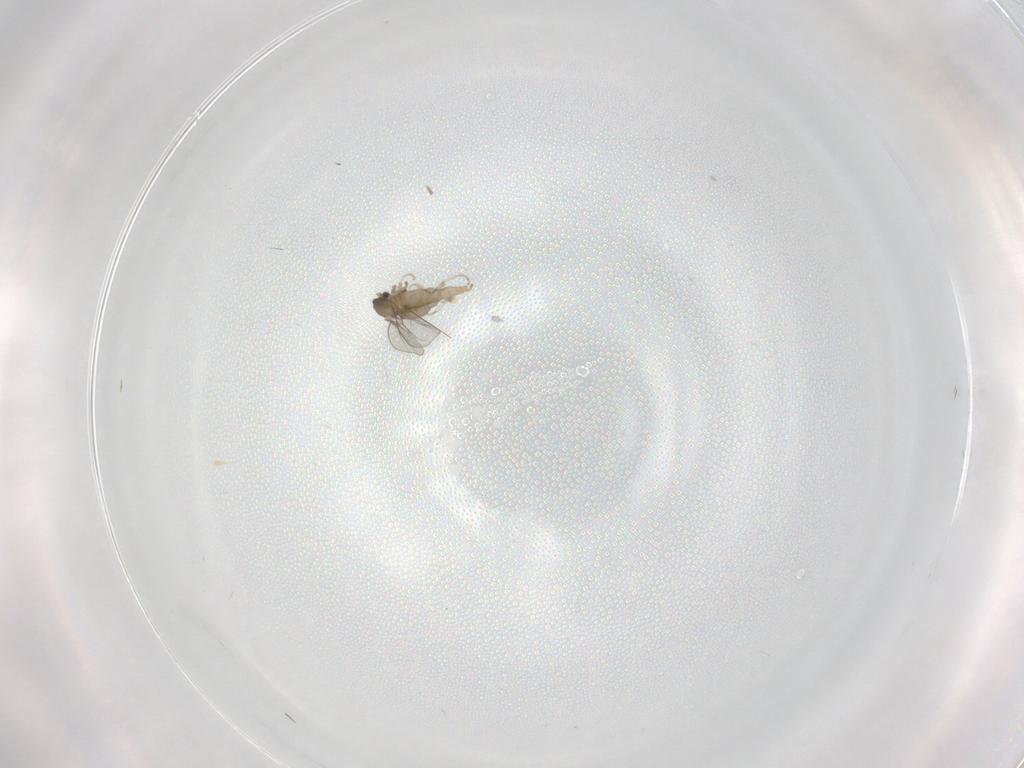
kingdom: Animalia
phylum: Arthropoda
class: Insecta
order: Diptera
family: Cecidomyiidae
